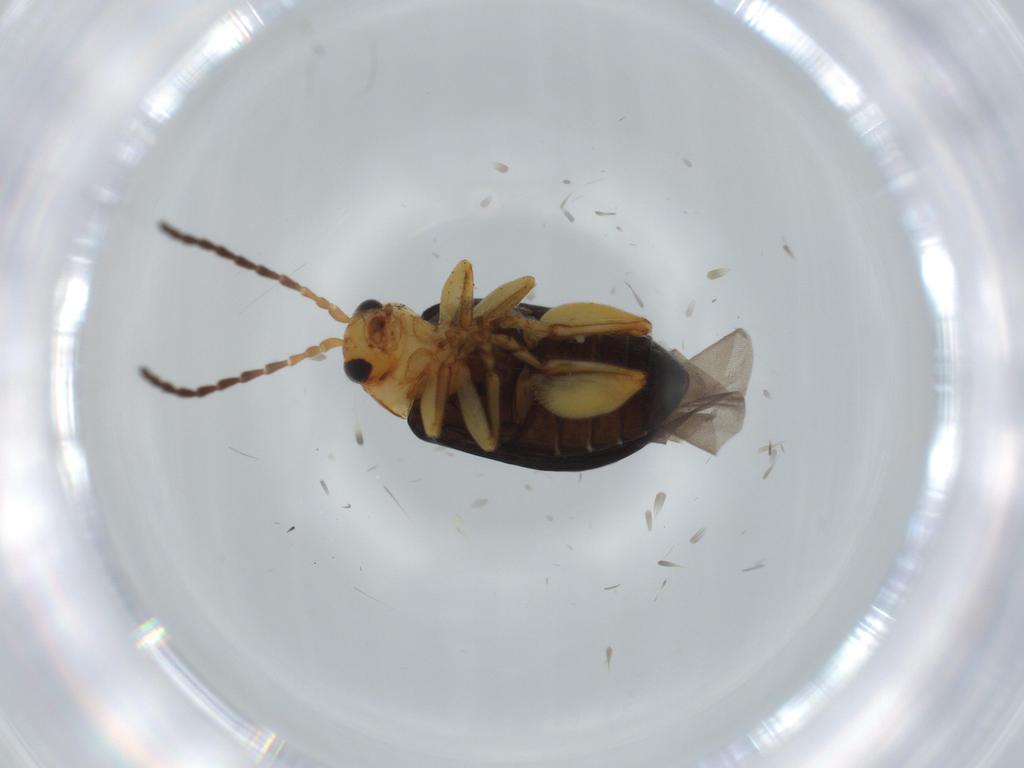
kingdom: Animalia
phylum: Arthropoda
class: Insecta
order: Coleoptera
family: Chrysomelidae
